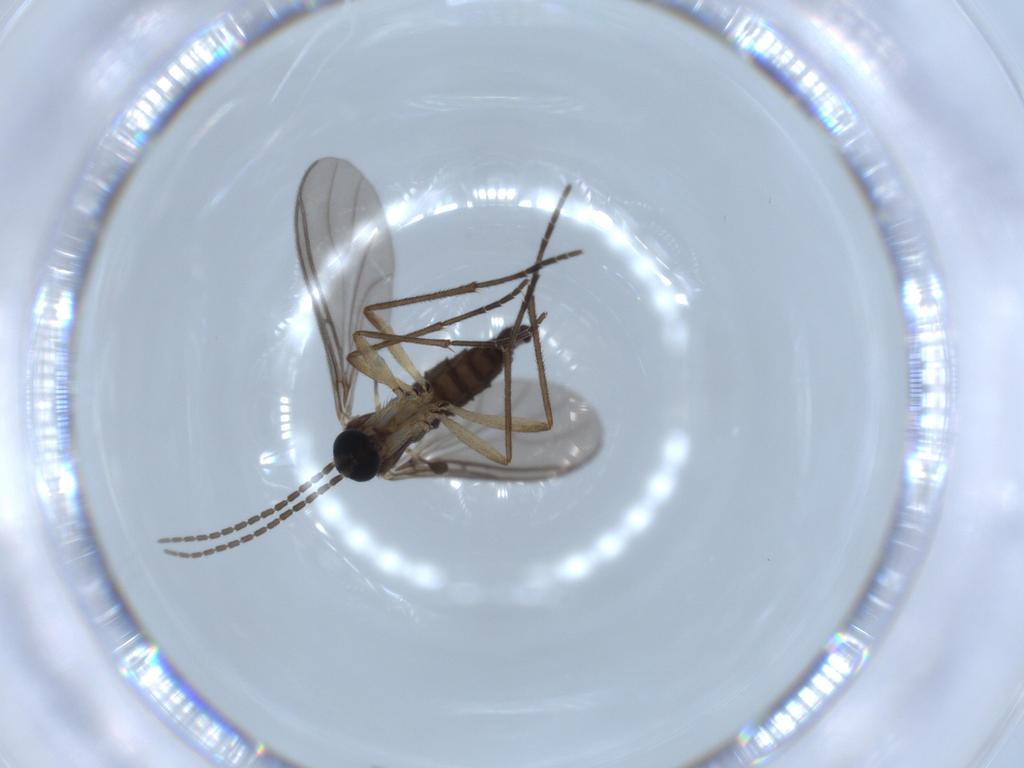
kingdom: Animalia
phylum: Arthropoda
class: Insecta
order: Diptera
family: Sciaridae
